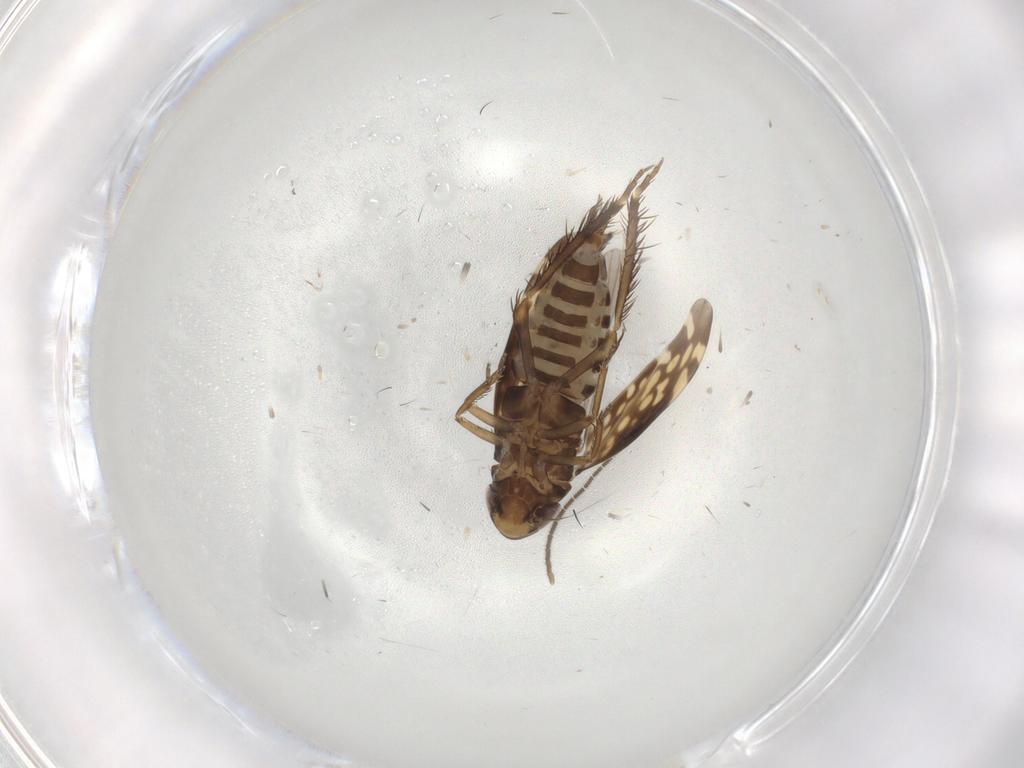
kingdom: Animalia
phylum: Arthropoda
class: Insecta
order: Hemiptera
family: Cicadellidae
